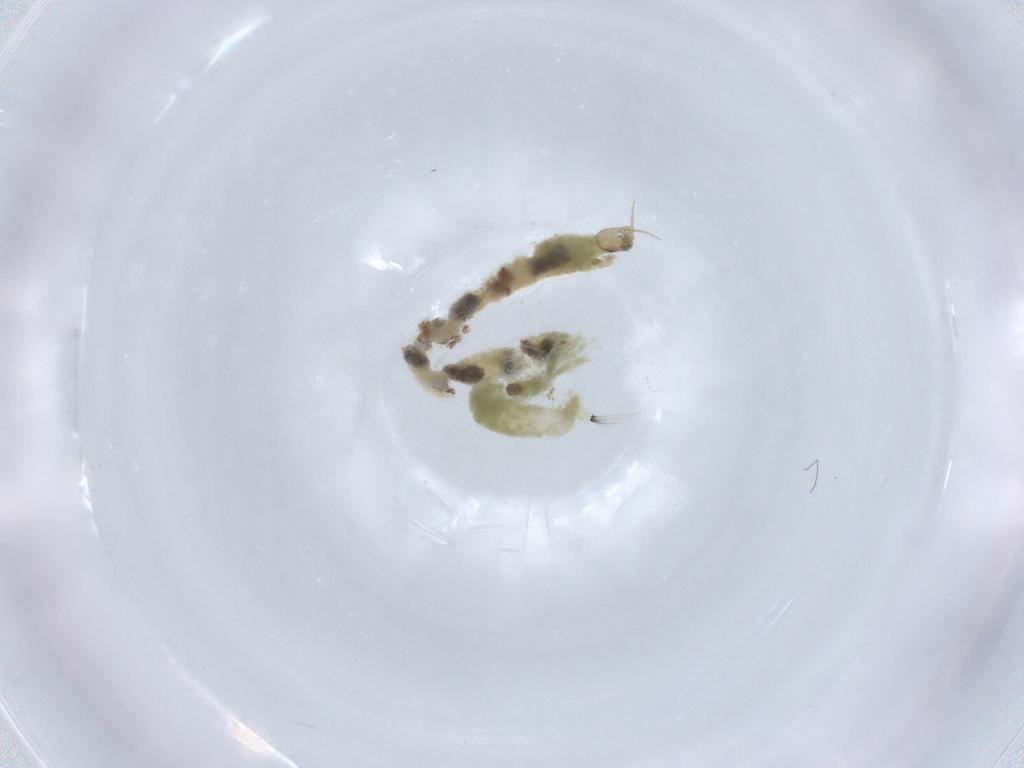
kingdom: Animalia
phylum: Arthropoda
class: Insecta
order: Diptera
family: Chironomidae
